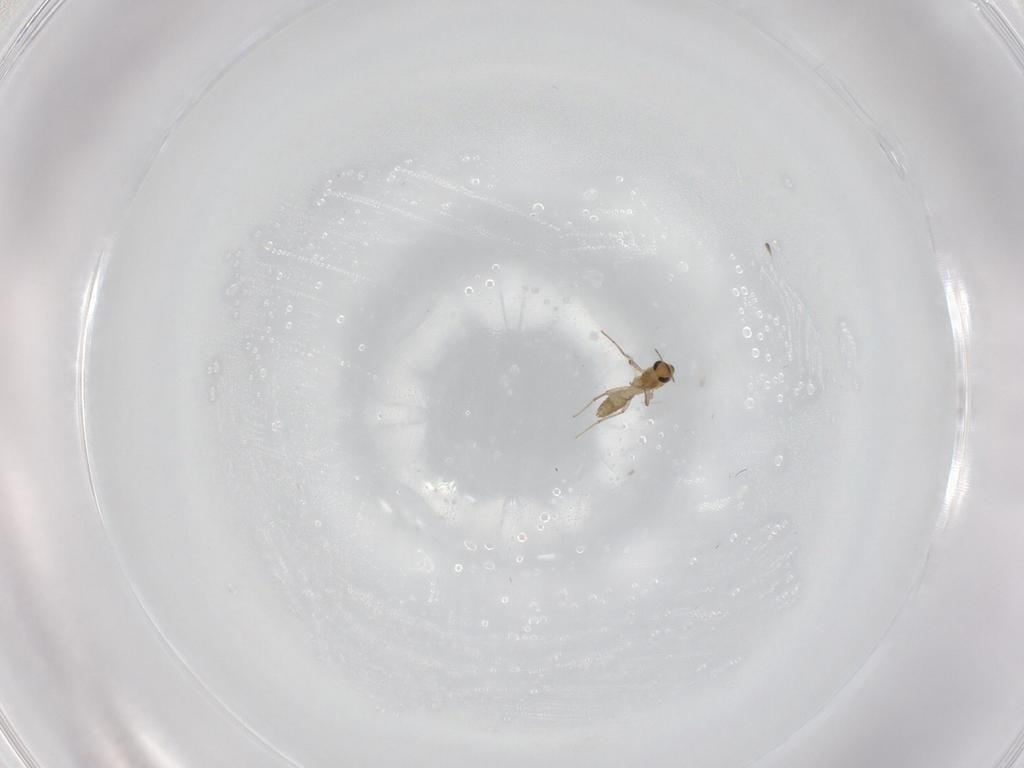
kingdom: Animalia
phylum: Arthropoda
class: Insecta
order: Diptera
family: Chironomidae
